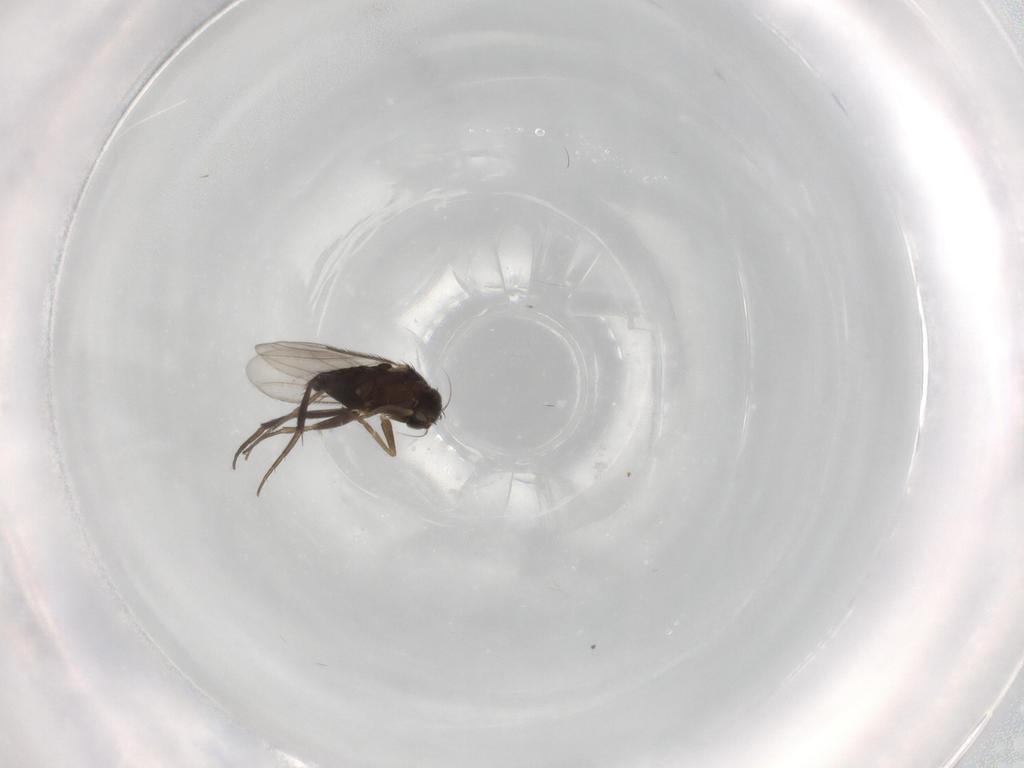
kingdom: Animalia
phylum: Arthropoda
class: Insecta
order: Diptera
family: Phoridae
